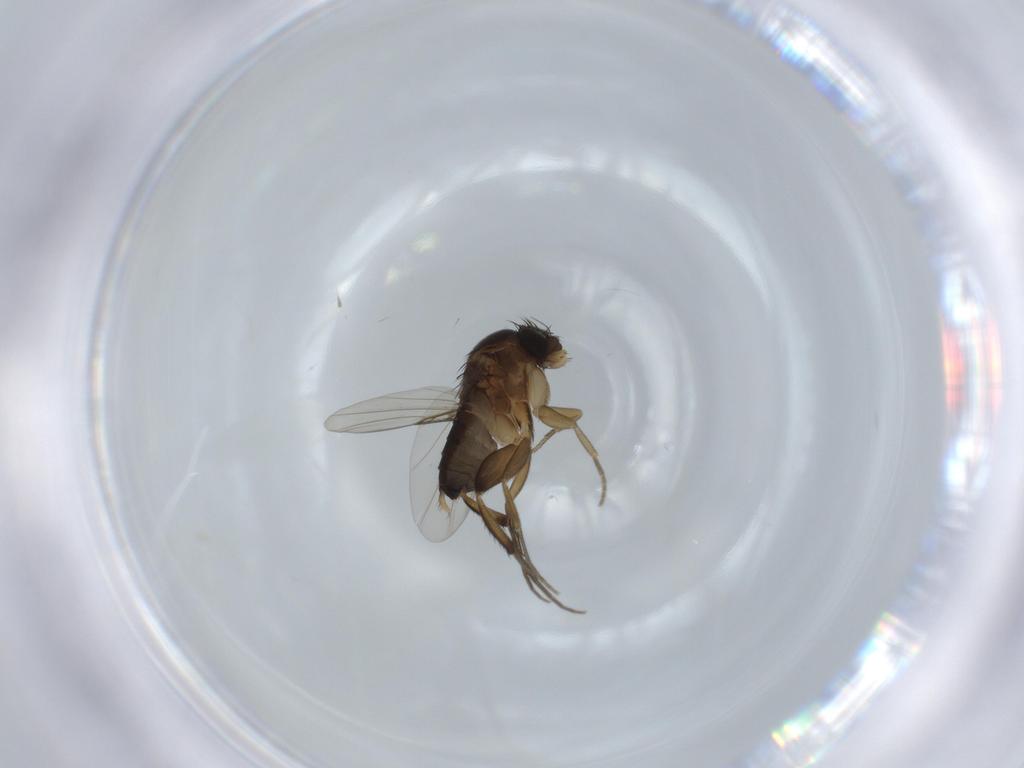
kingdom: Animalia
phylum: Arthropoda
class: Insecta
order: Diptera
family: Phoridae
